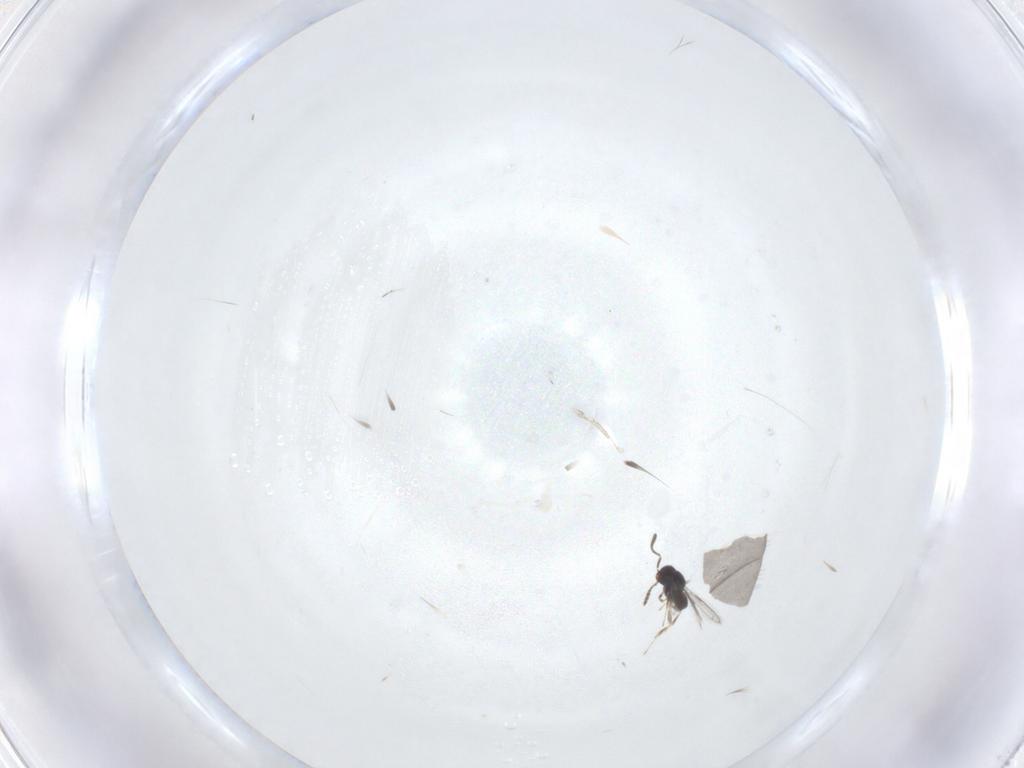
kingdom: Animalia
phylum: Arthropoda
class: Insecta
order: Hymenoptera
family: Scelionidae
